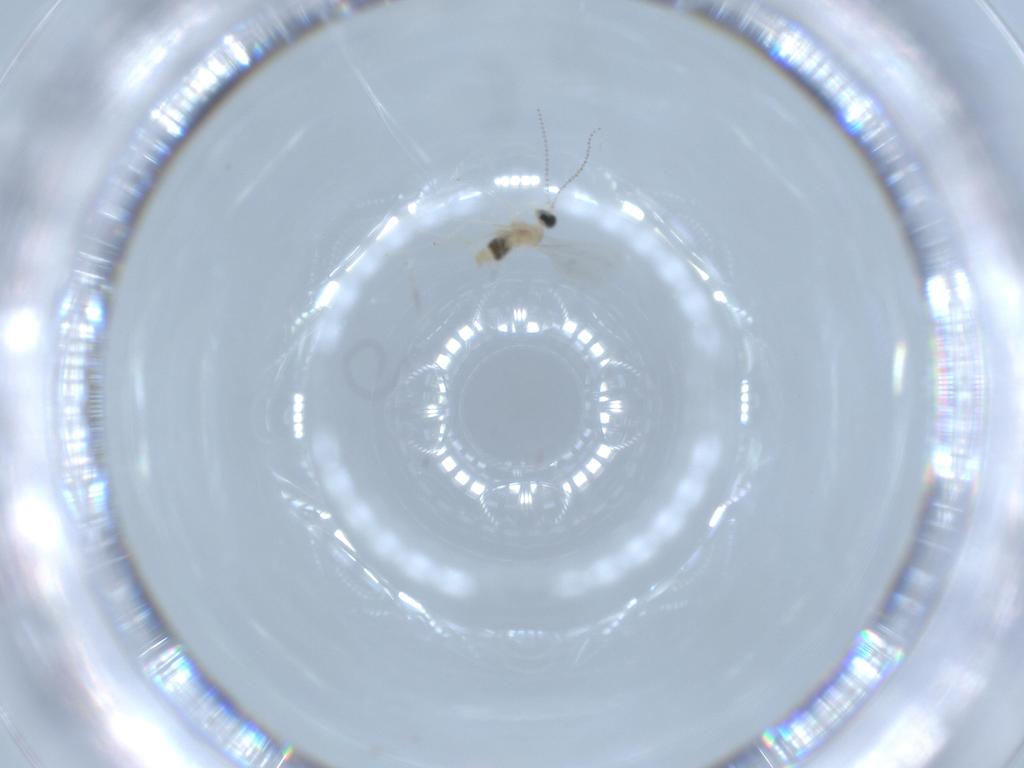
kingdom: Animalia
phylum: Arthropoda
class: Insecta
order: Diptera
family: Cecidomyiidae
